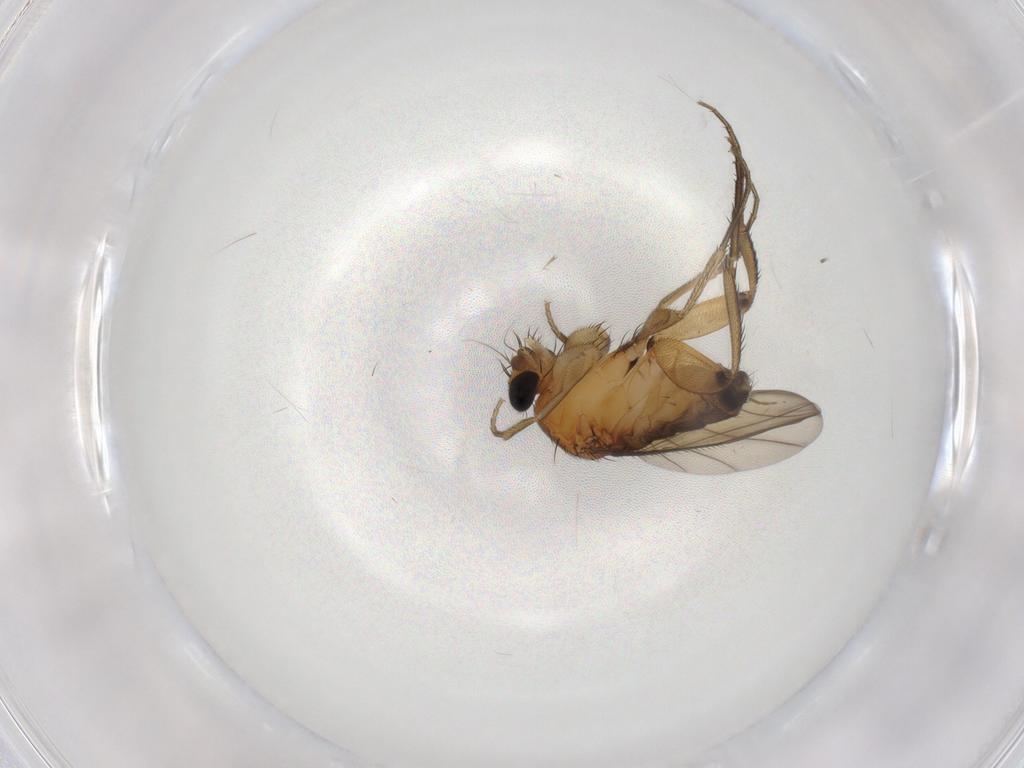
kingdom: Animalia
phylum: Arthropoda
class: Insecta
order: Diptera
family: Phoridae
